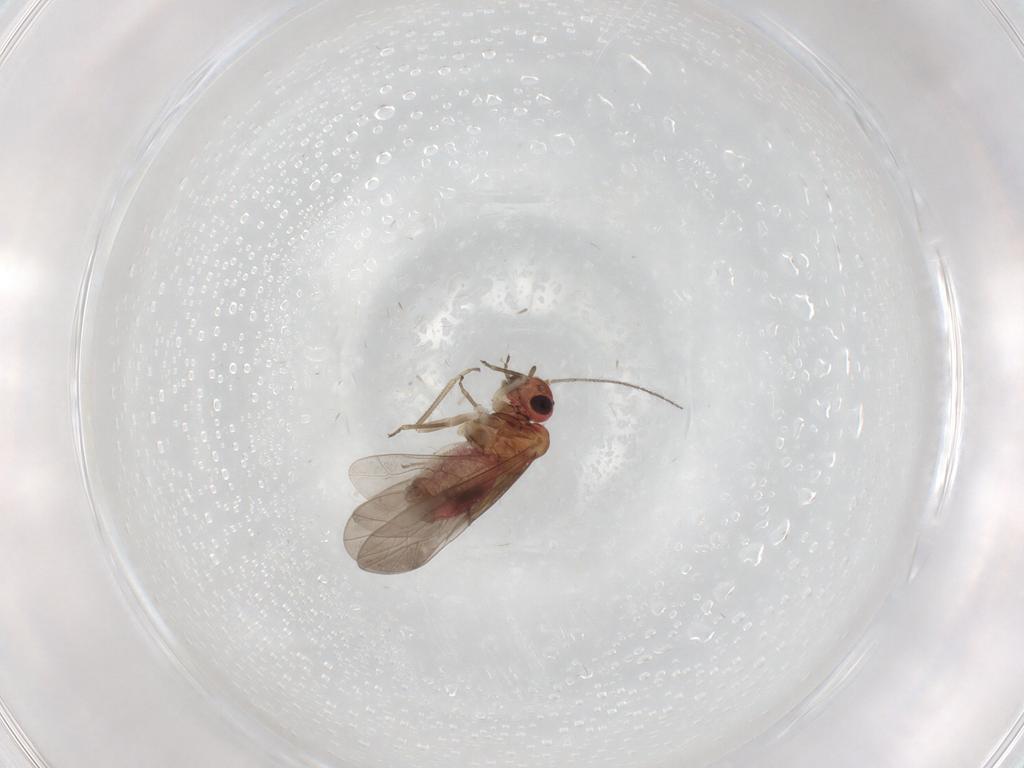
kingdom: Animalia
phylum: Arthropoda
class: Insecta
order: Psocodea
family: Lachesillidae
